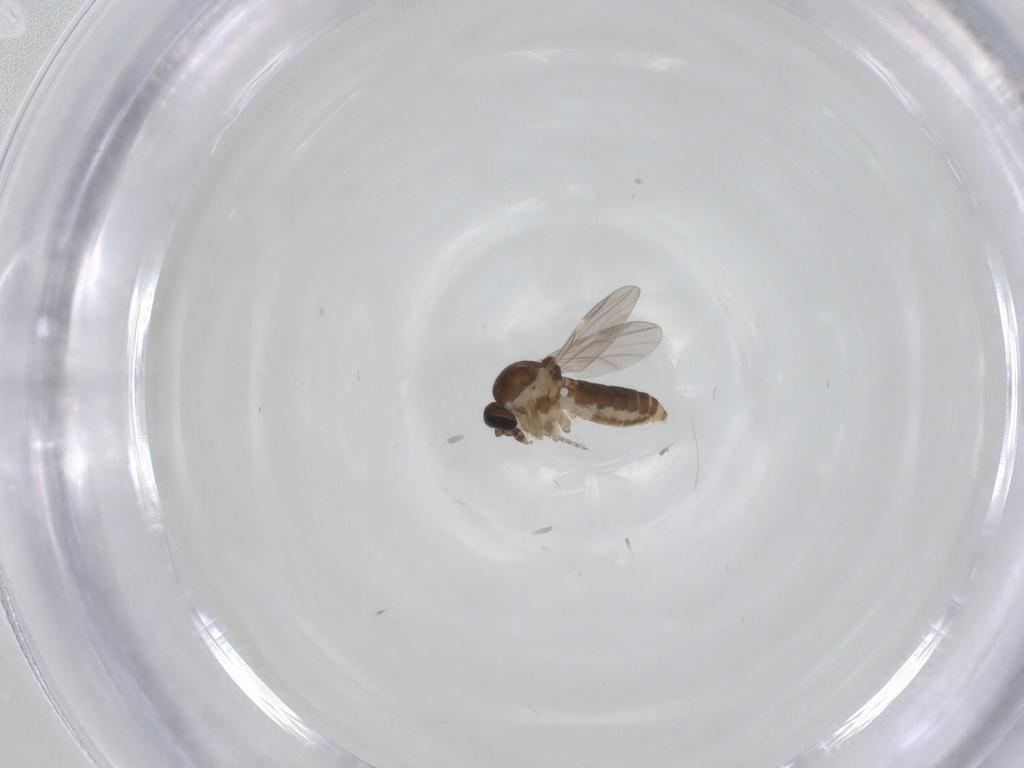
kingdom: Animalia
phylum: Arthropoda
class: Insecta
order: Diptera
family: Ceratopogonidae
